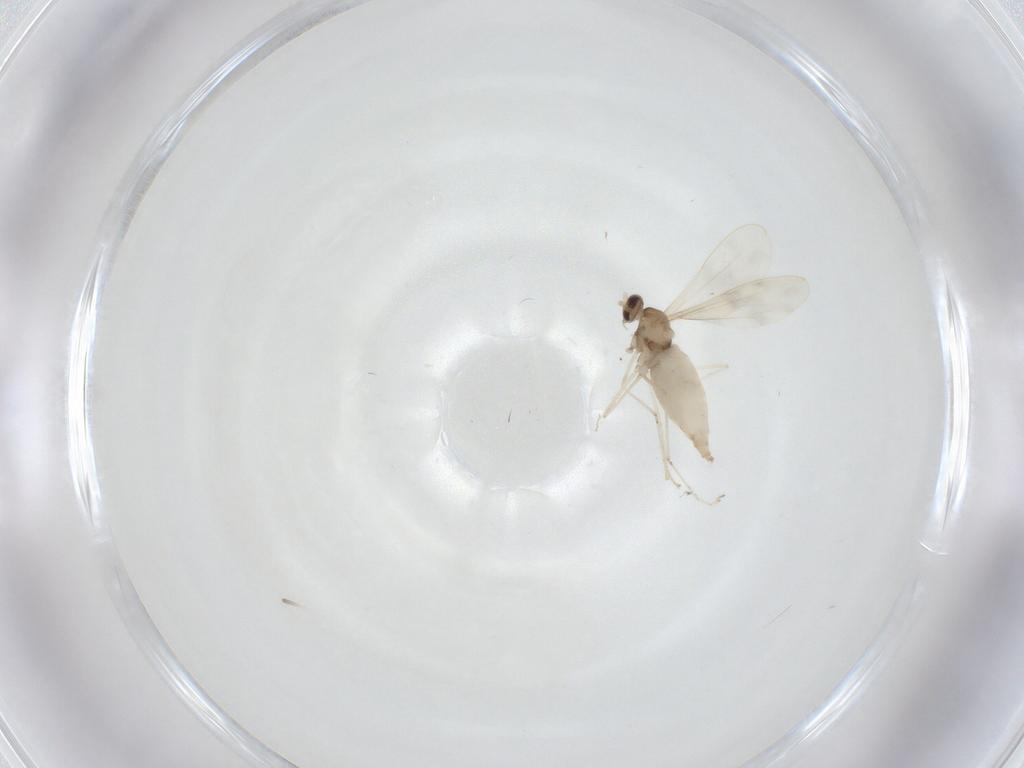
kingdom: Animalia
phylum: Arthropoda
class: Insecta
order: Diptera
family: Cecidomyiidae
